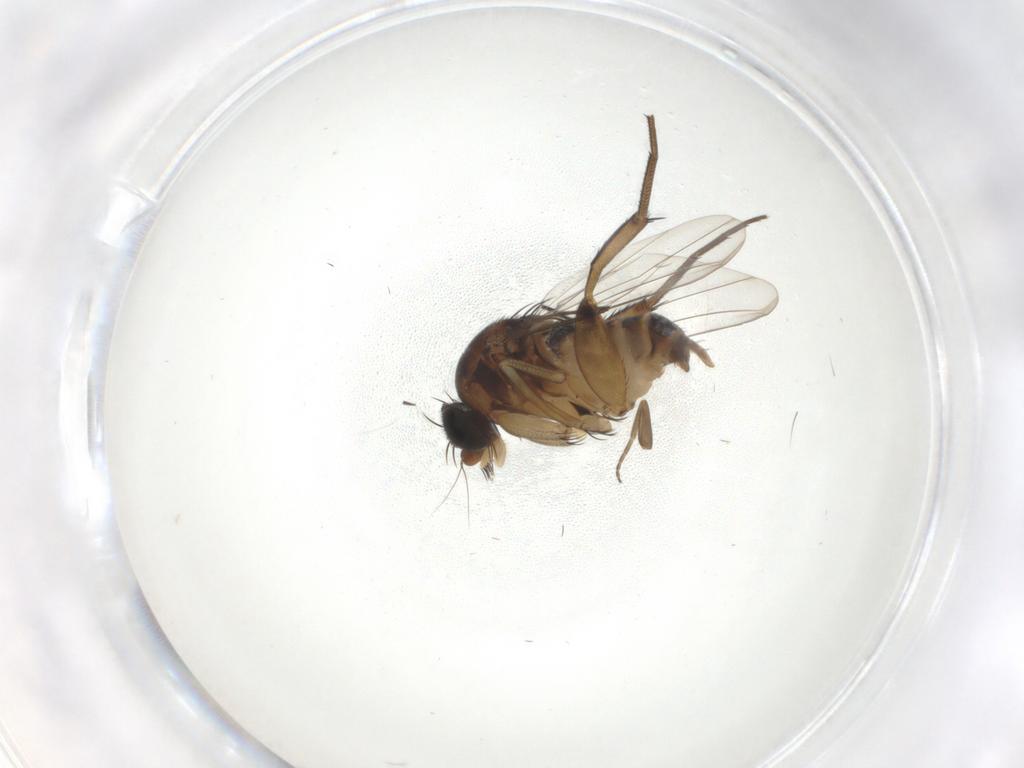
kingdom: Animalia
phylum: Arthropoda
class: Insecta
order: Diptera
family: Phoridae
